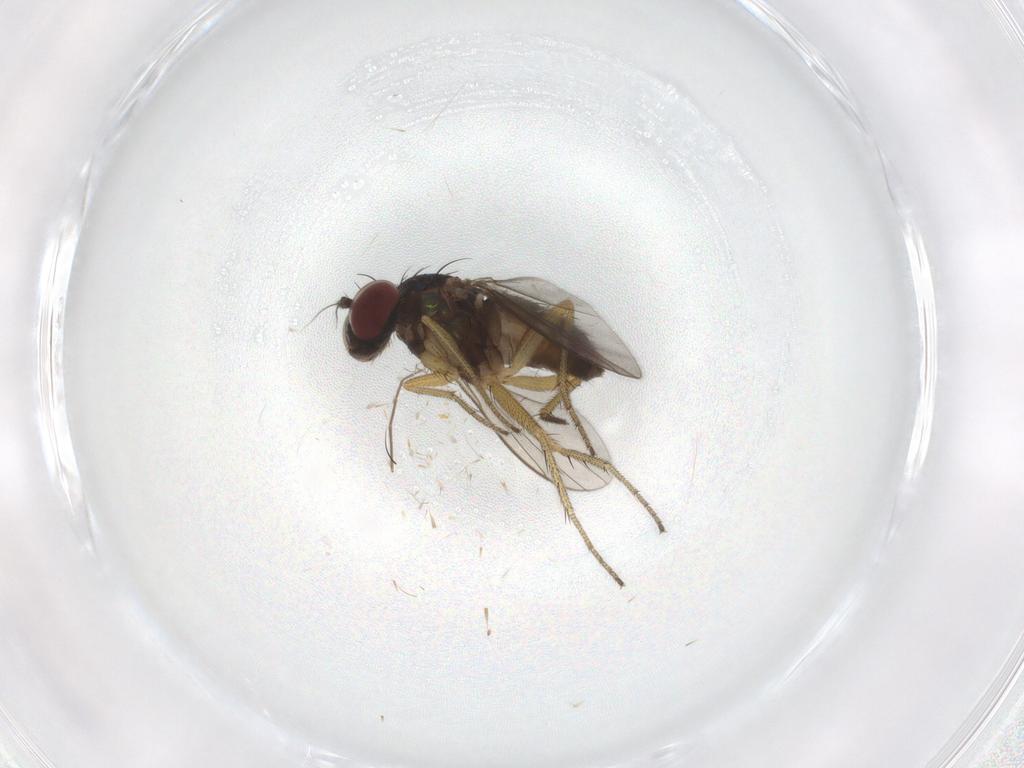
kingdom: Animalia
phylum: Arthropoda
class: Insecta
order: Diptera
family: Chironomidae
